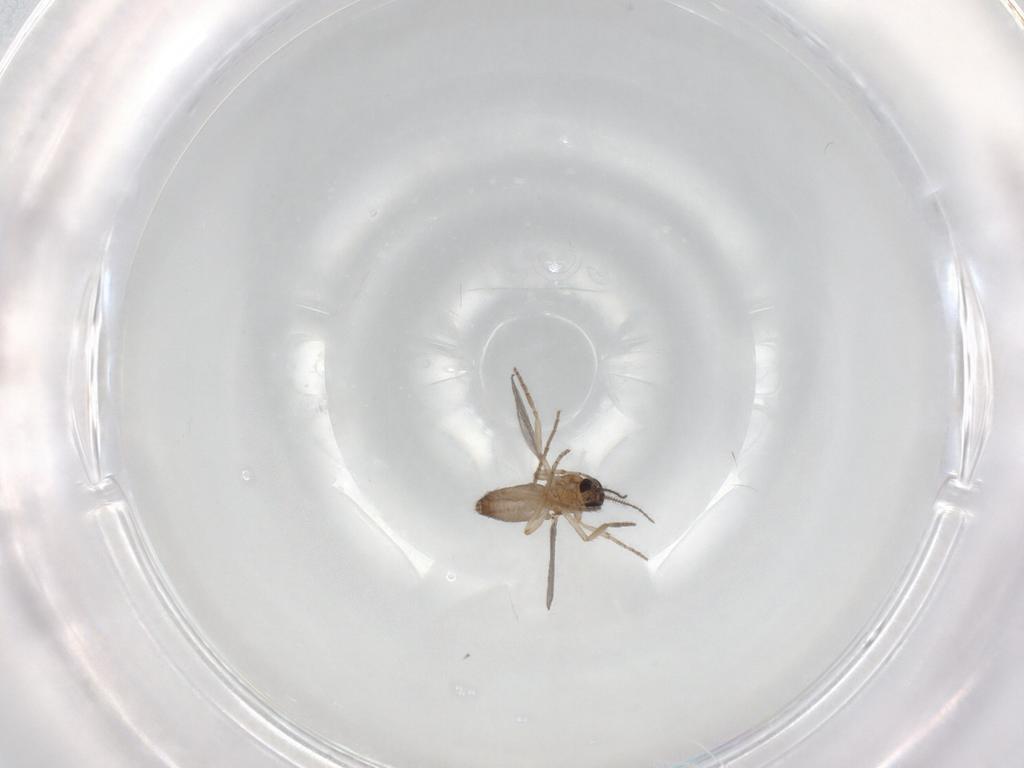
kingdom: Animalia
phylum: Arthropoda
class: Insecta
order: Diptera
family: Chironomidae
